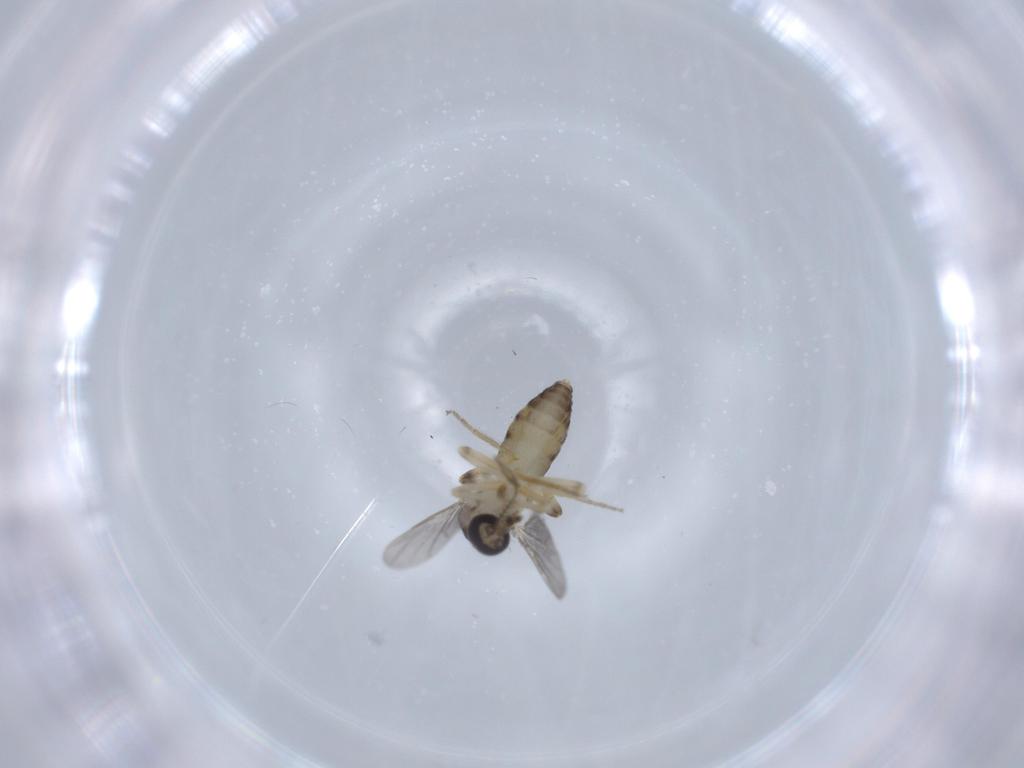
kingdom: Animalia
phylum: Arthropoda
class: Insecta
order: Diptera
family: Ceratopogonidae
